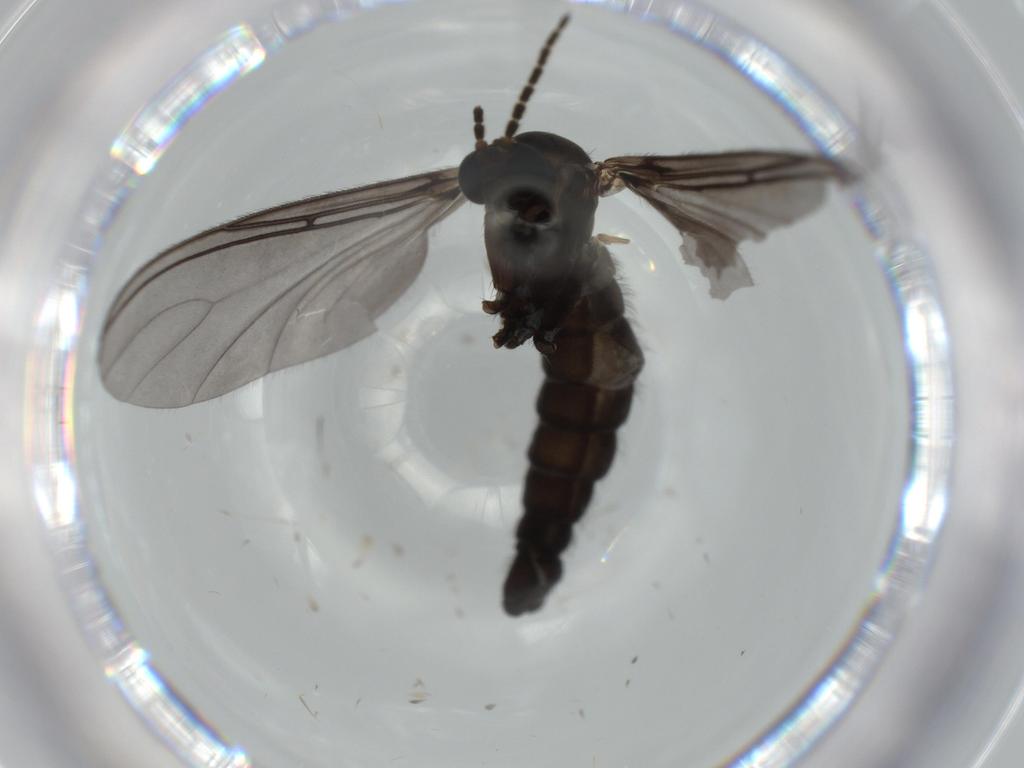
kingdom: Animalia
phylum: Arthropoda
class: Insecta
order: Diptera
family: Sciaridae
